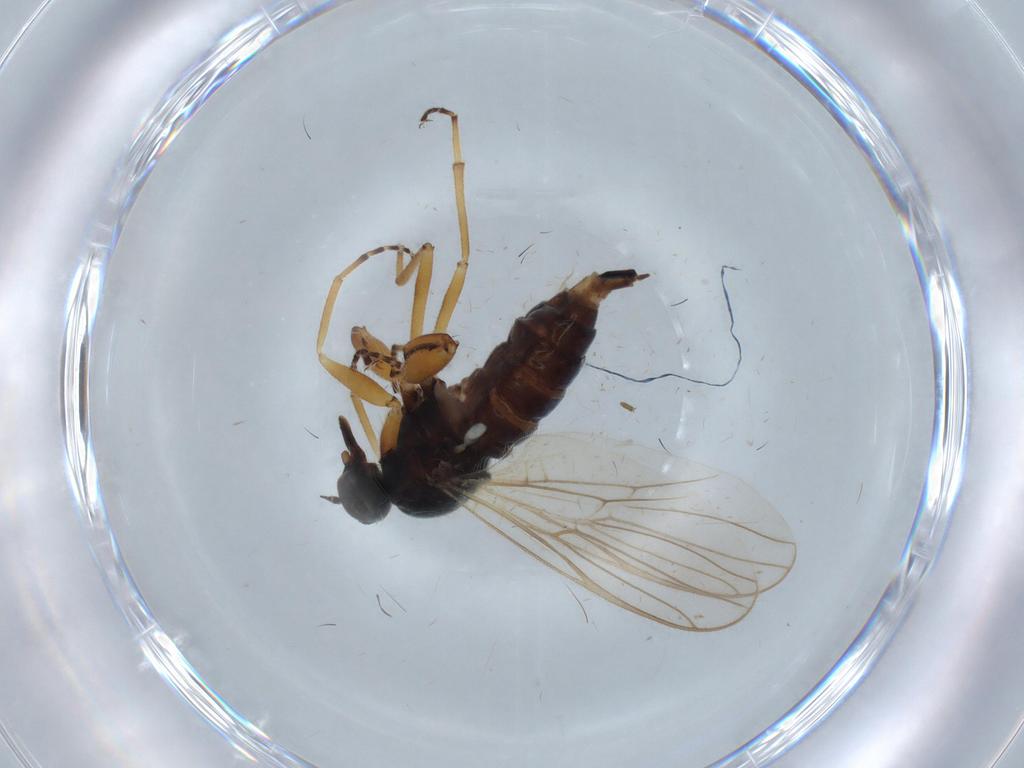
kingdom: Animalia
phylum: Arthropoda
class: Insecta
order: Diptera
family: Hybotidae
